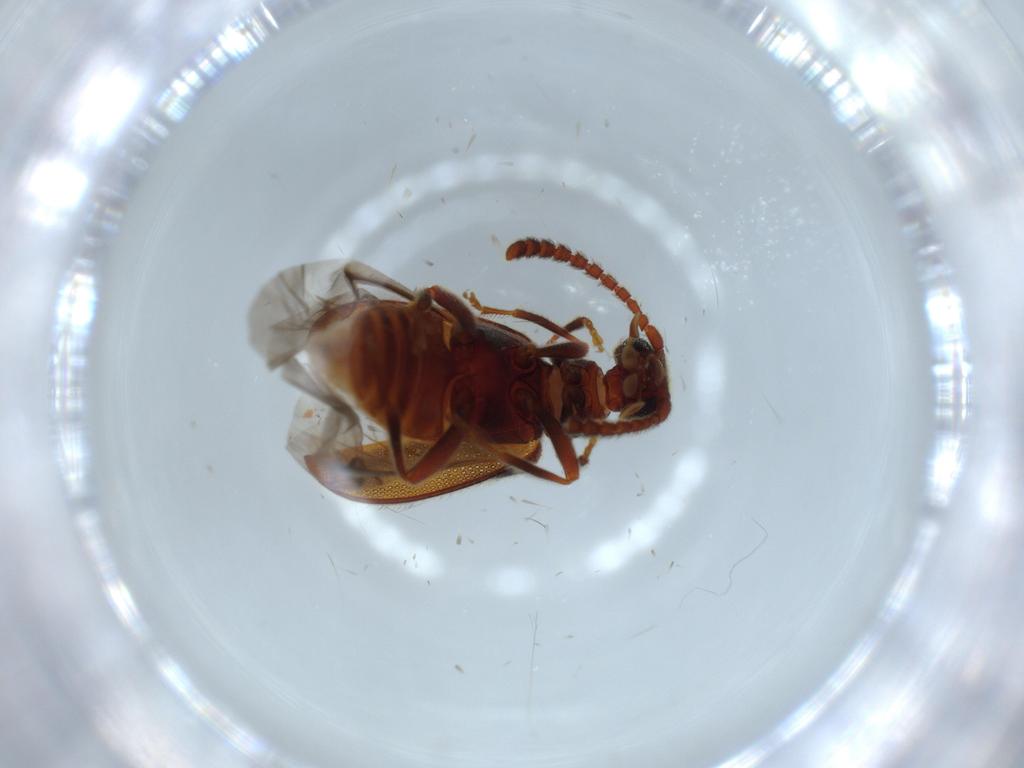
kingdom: Animalia
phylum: Arthropoda
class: Insecta
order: Coleoptera
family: Aderidae
